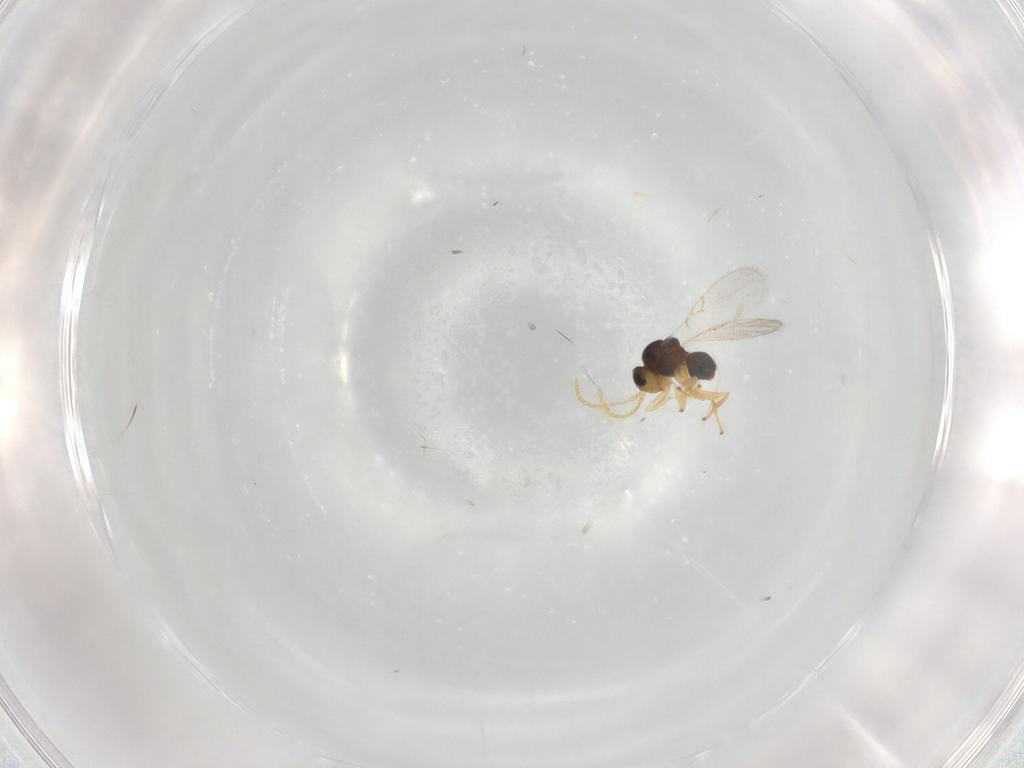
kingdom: Animalia
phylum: Arthropoda
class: Insecta
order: Hymenoptera
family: Figitidae
